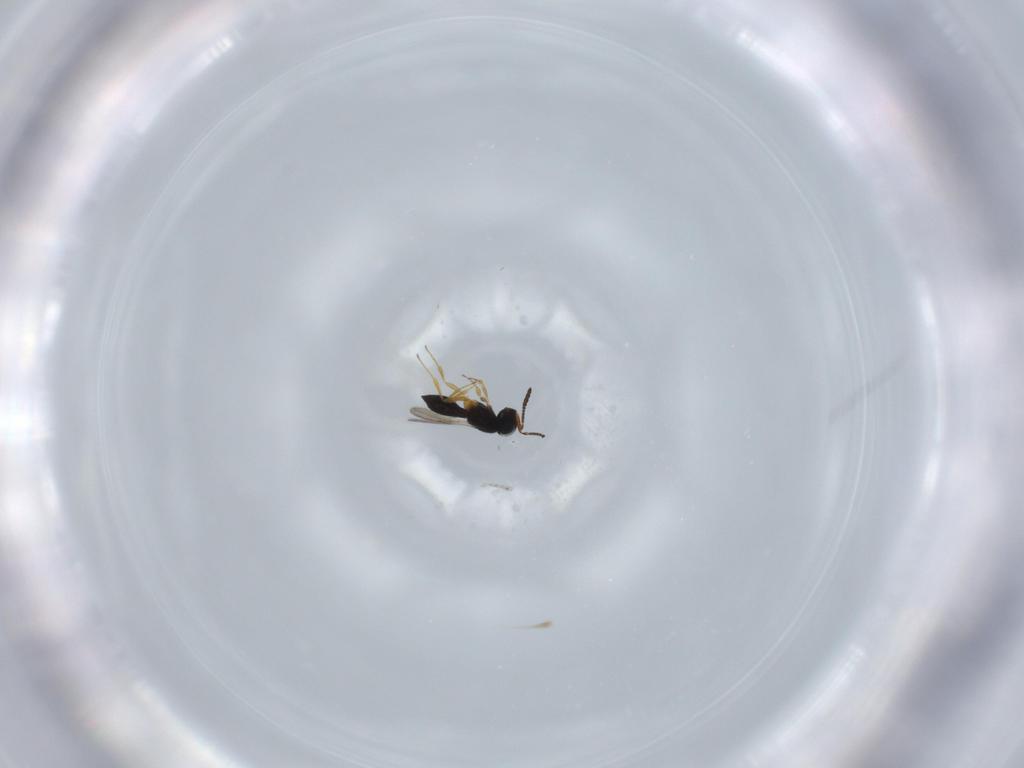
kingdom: Animalia
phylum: Arthropoda
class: Insecta
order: Hymenoptera
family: Scelionidae
